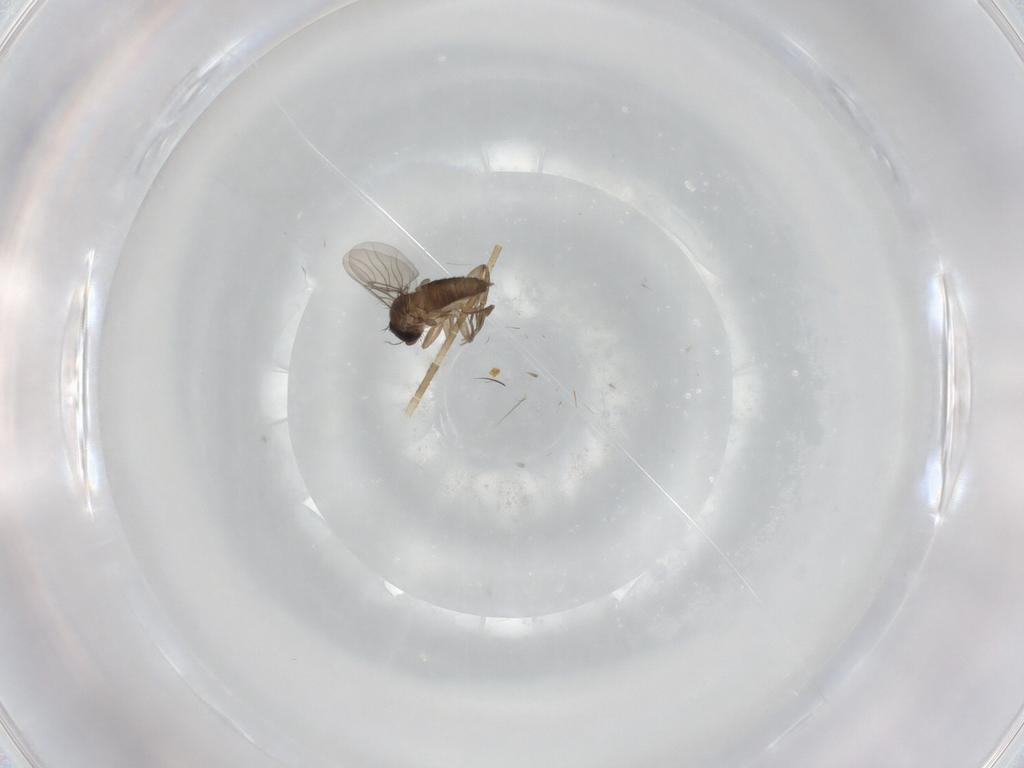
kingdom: Animalia
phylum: Arthropoda
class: Insecta
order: Diptera
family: Phoridae
